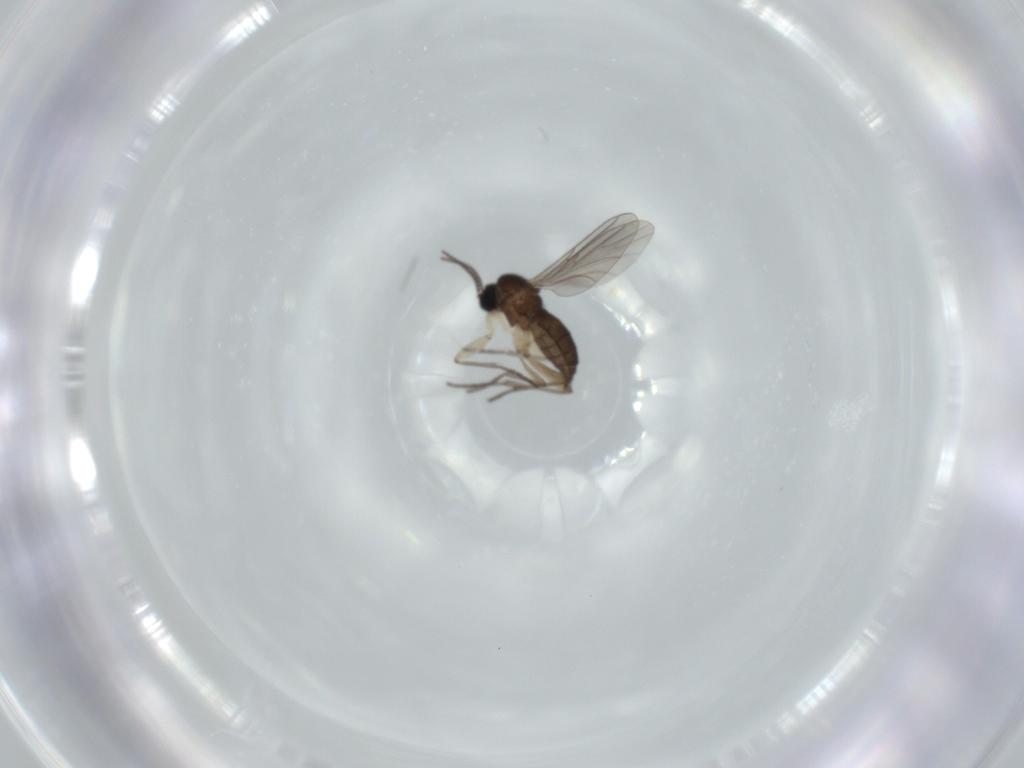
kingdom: Animalia
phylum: Arthropoda
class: Insecta
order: Diptera
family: Sciaridae
